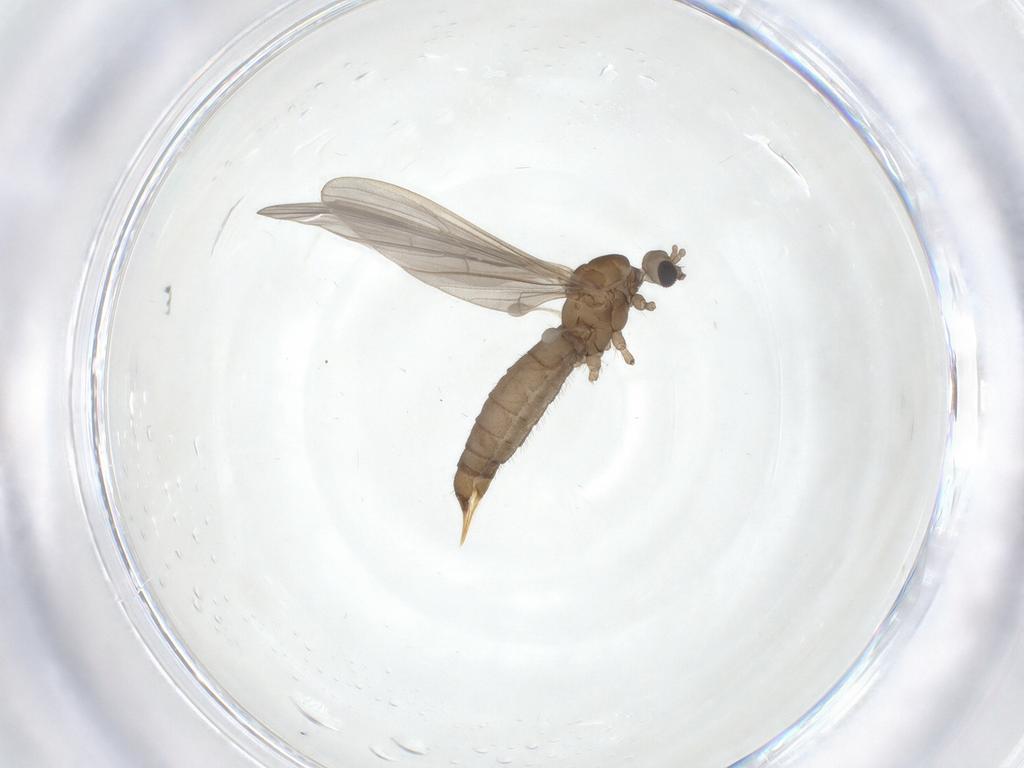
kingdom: Animalia
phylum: Arthropoda
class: Insecta
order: Diptera
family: Limoniidae
